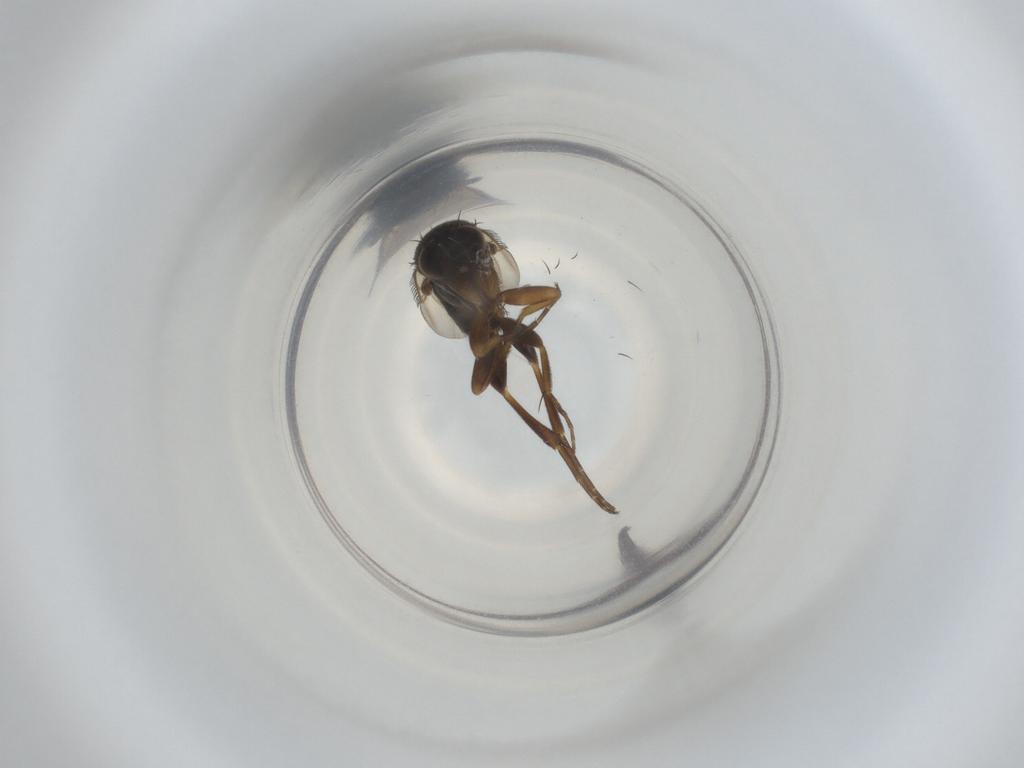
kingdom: Animalia
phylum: Arthropoda
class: Insecta
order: Diptera
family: Phoridae
